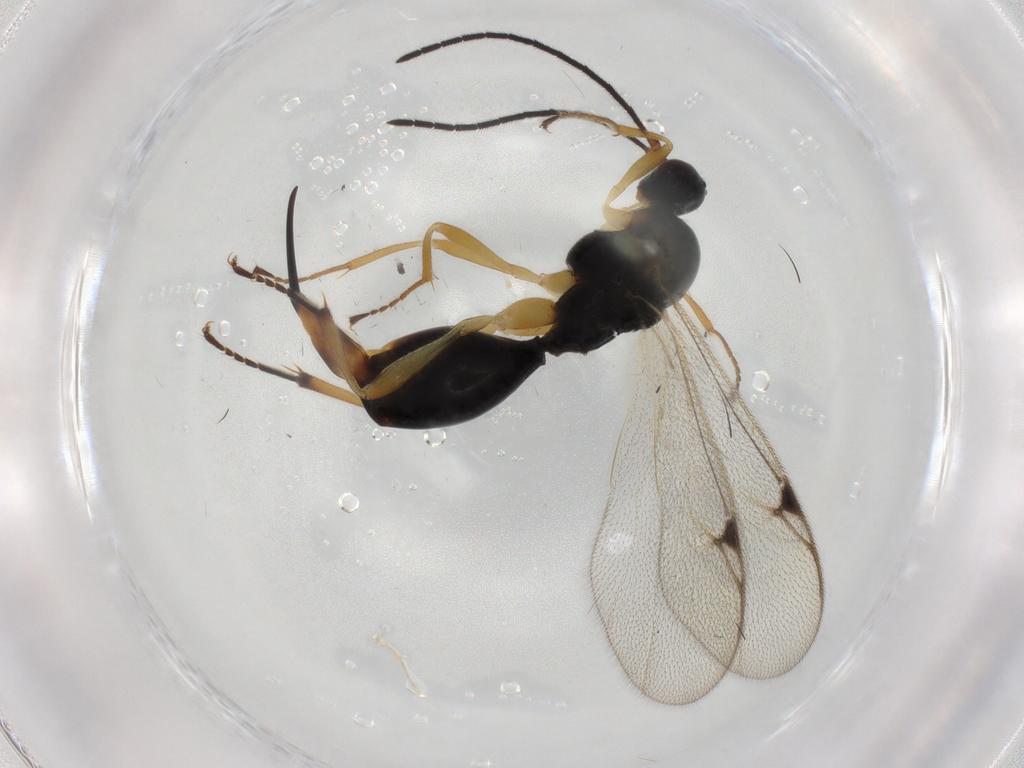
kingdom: Animalia
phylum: Arthropoda
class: Insecta
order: Hymenoptera
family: Proctotrupidae
